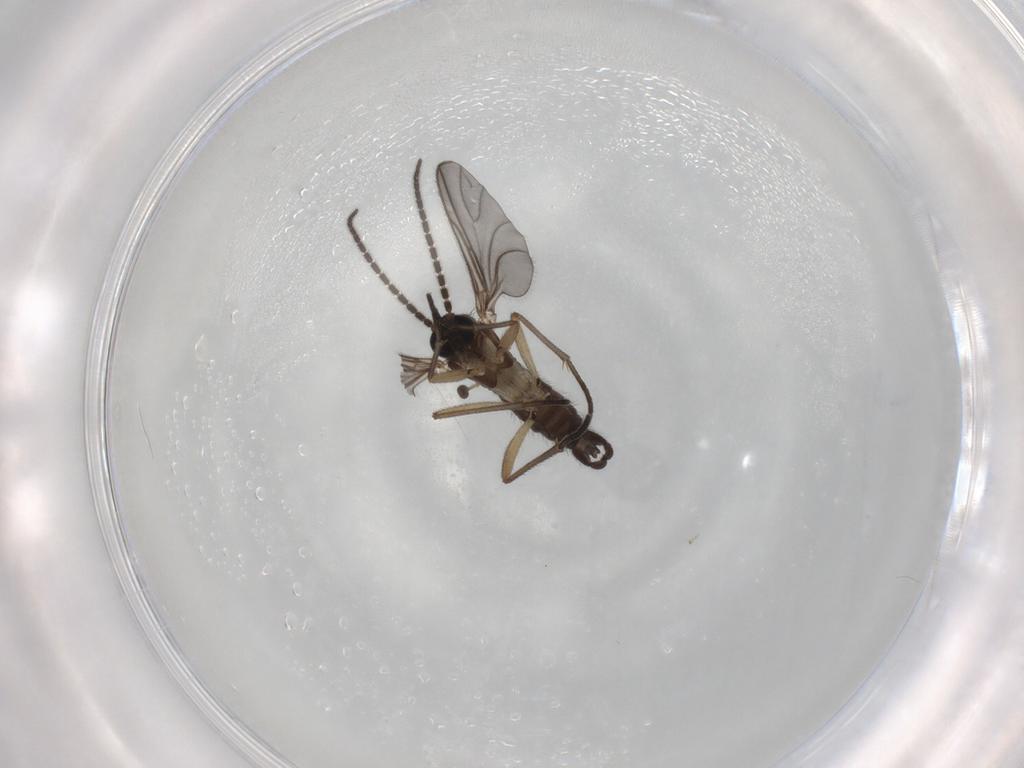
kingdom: Animalia
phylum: Arthropoda
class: Insecta
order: Diptera
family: Sciaridae
